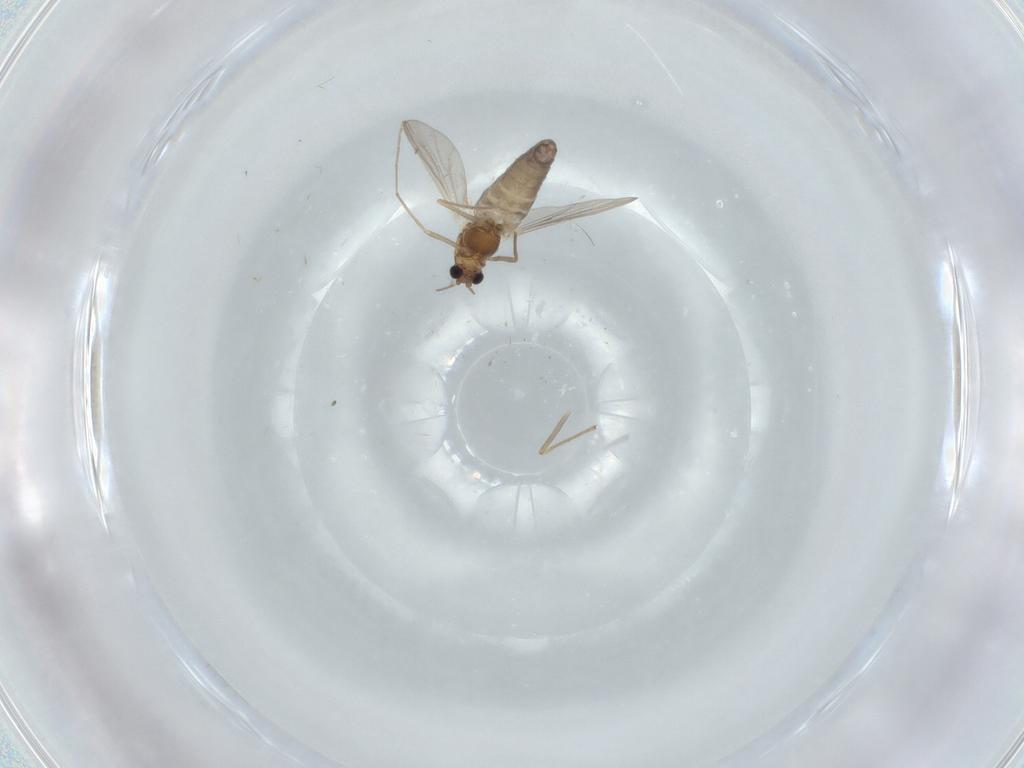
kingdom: Animalia
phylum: Arthropoda
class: Insecta
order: Diptera
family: Chironomidae
